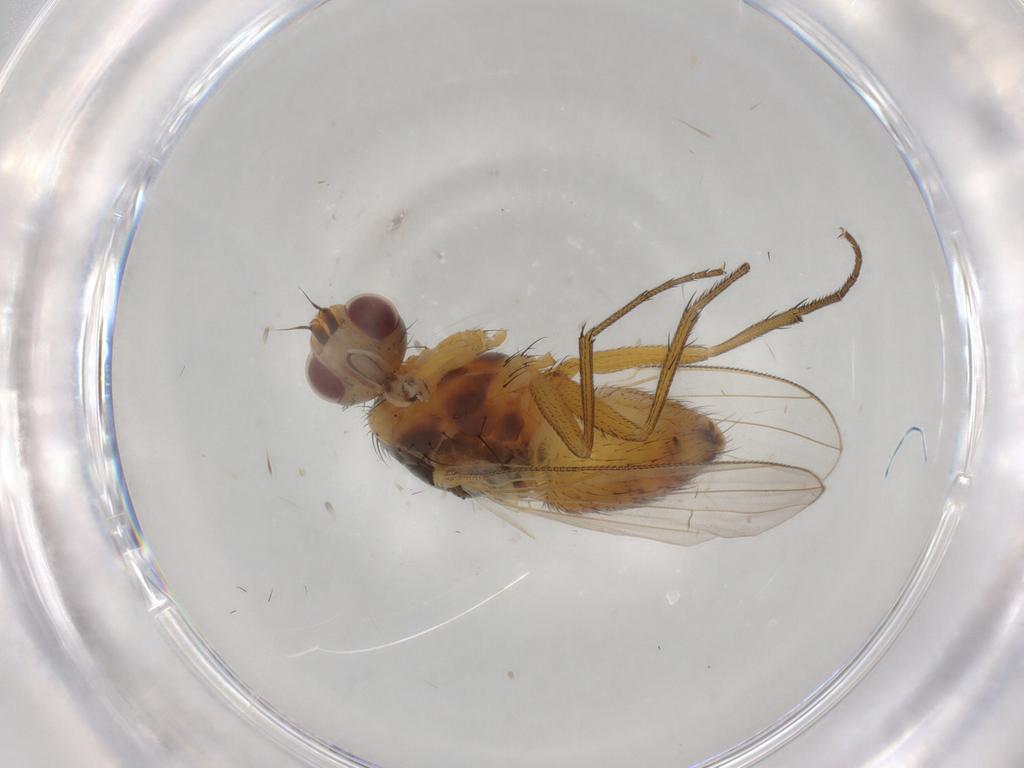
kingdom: Animalia
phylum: Arthropoda
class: Insecta
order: Diptera
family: Muscidae
